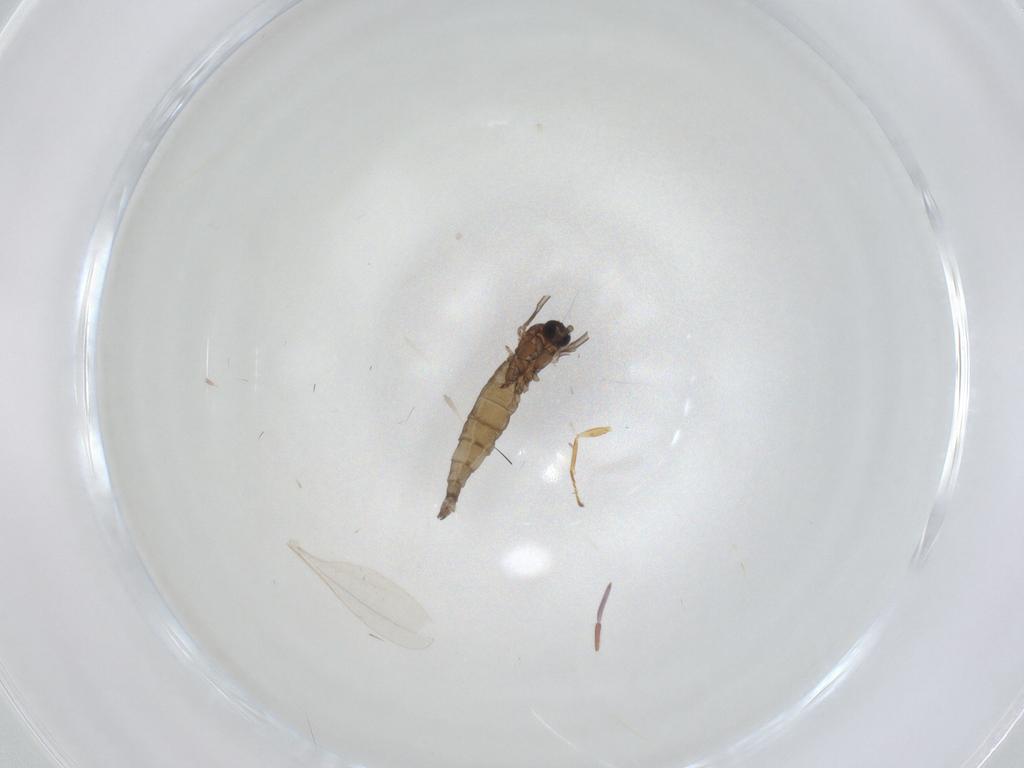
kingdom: Animalia
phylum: Arthropoda
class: Insecta
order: Diptera
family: Sciaridae
